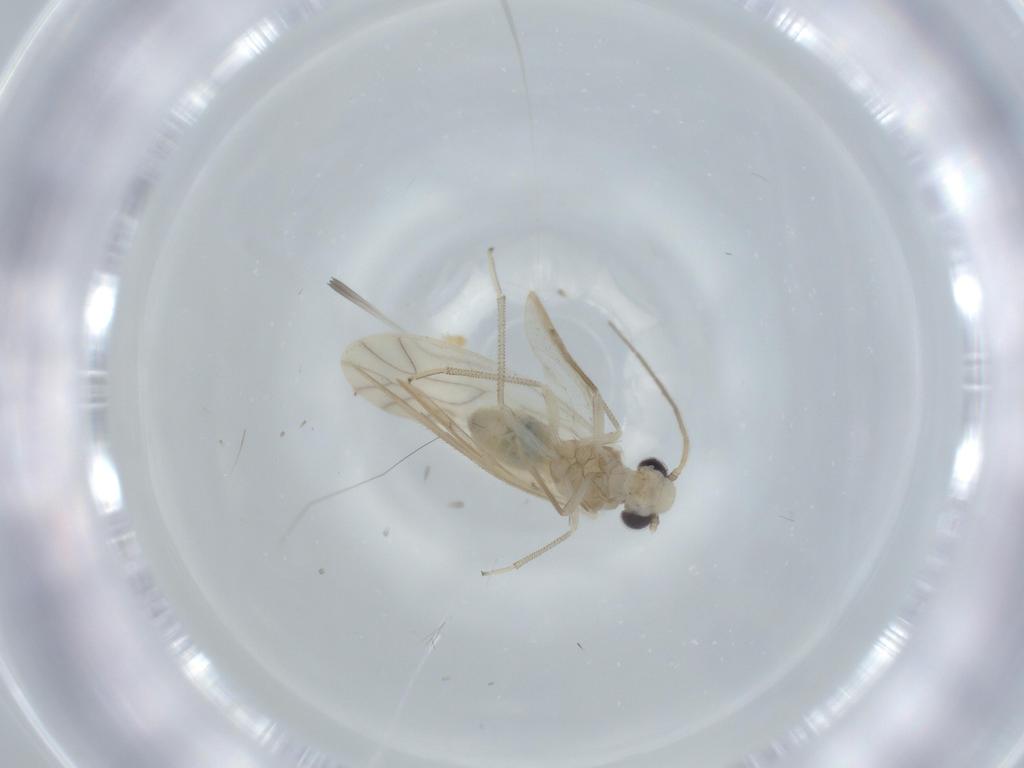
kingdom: Animalia
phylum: Arthropoda
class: Insecta
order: Psocodea
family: Caeciliusidae
